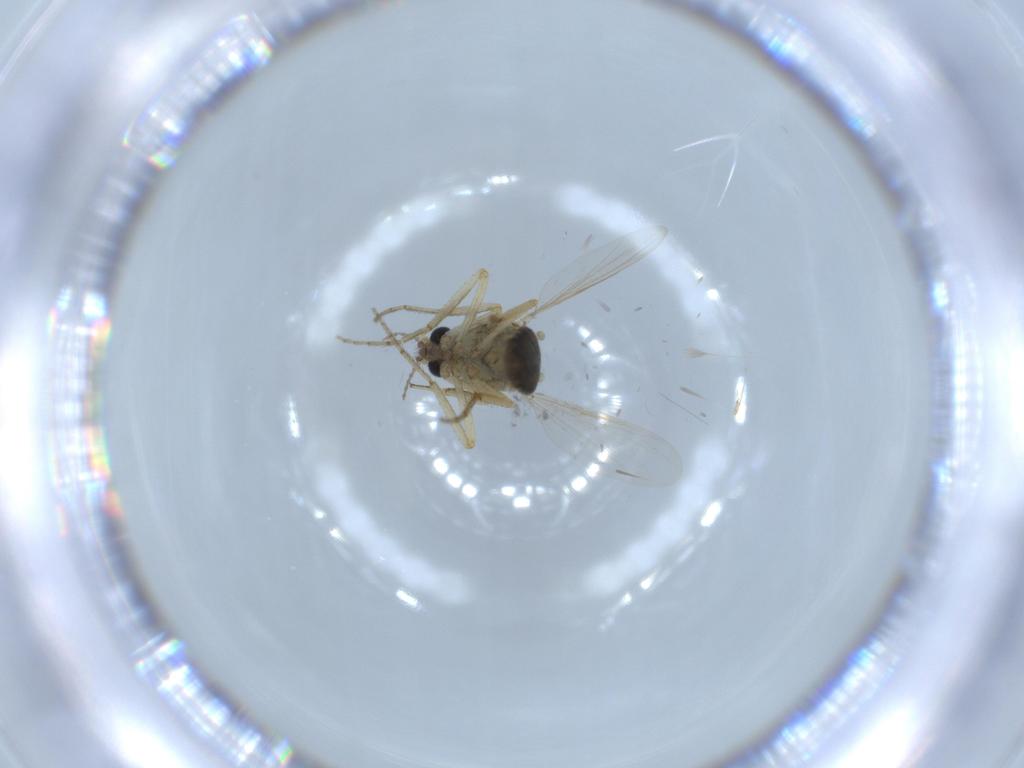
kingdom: Animalia
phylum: Arthropoda
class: Insecta
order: Diptera
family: Ceratopogonidae
